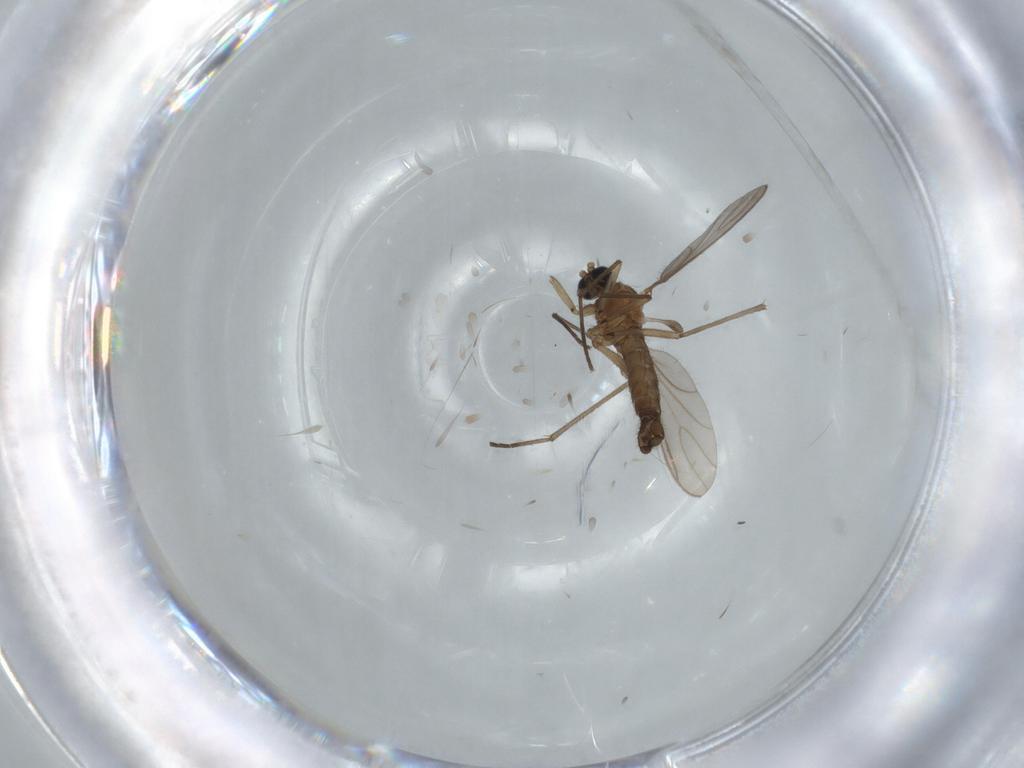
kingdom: Animalia
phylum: Arthropoda
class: Insecta
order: Diptera
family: Sciaridae
